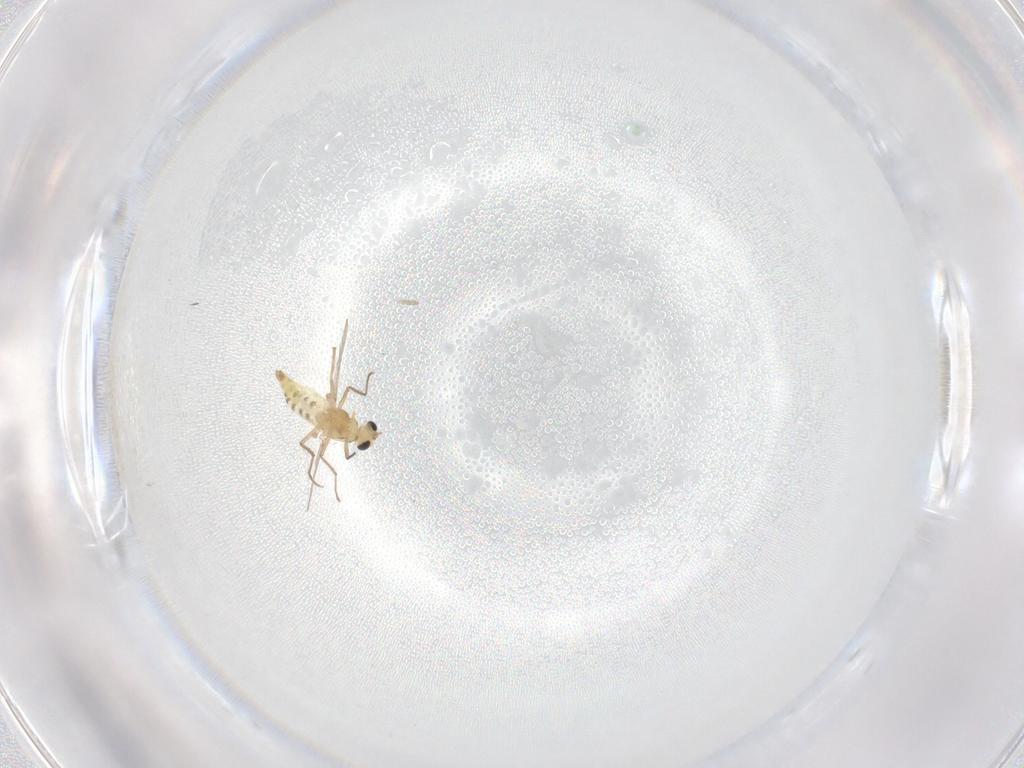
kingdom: Animalia
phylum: Arthropoda
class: Insecta
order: Diptera
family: Chironomidae
